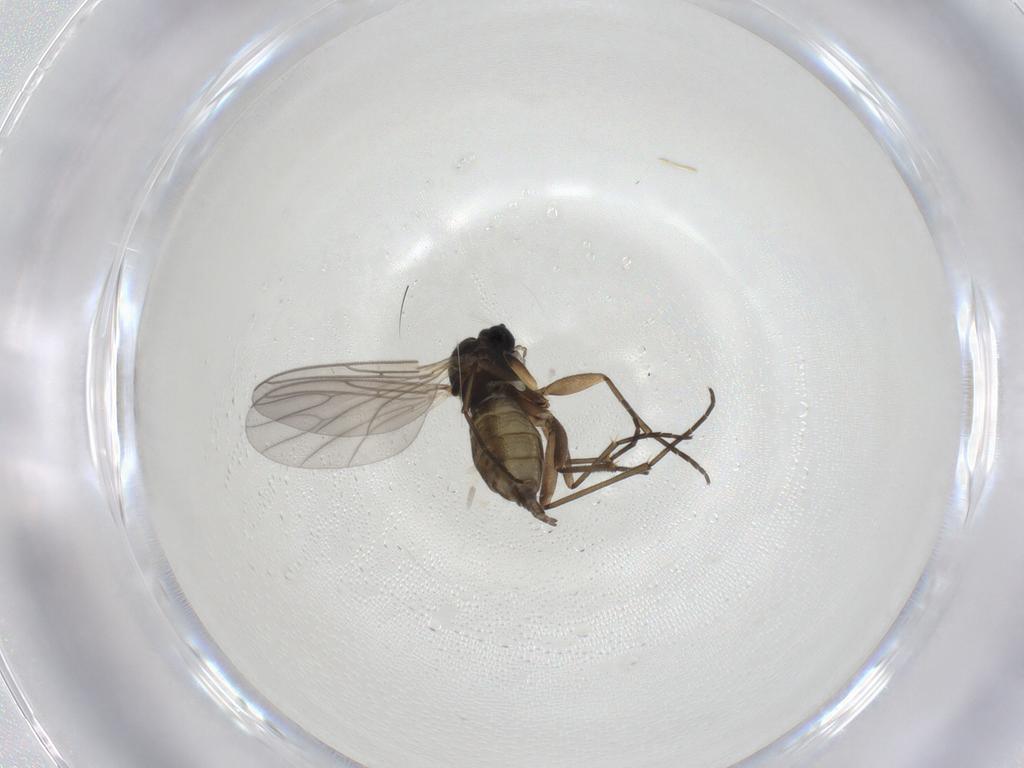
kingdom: Animalia
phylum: Arthropoda
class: Insecta
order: Diptera
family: Sciaridae
